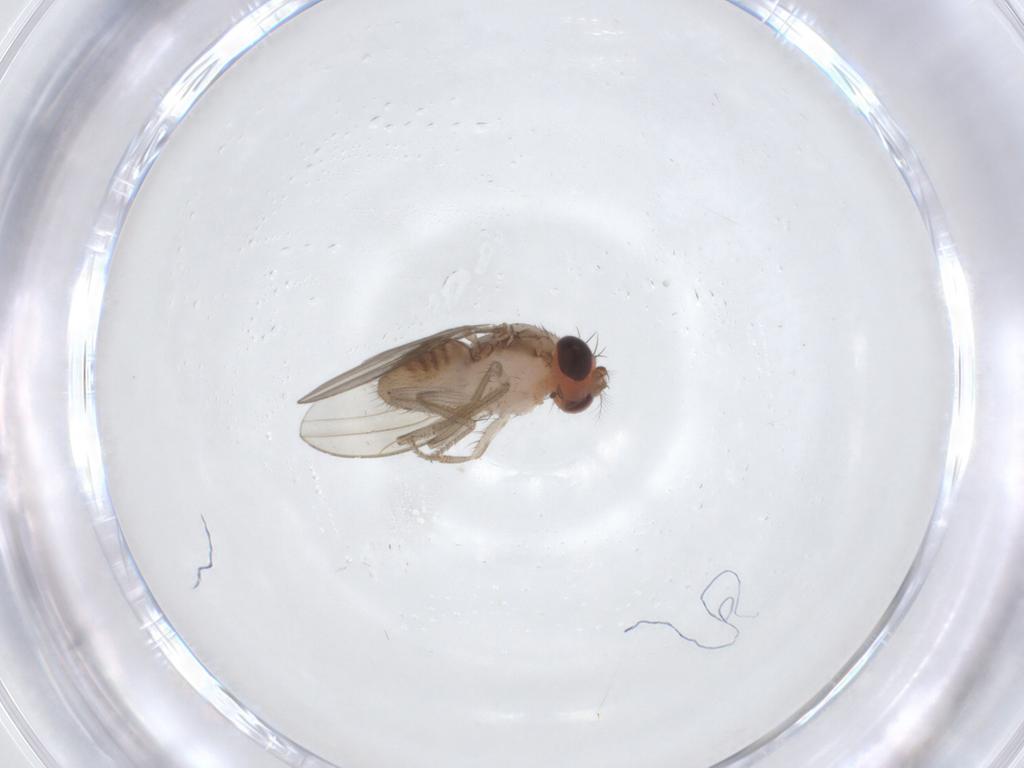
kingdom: Animalia
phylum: Arthropoda
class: Insecta
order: Diptera
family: Drosophilidae
